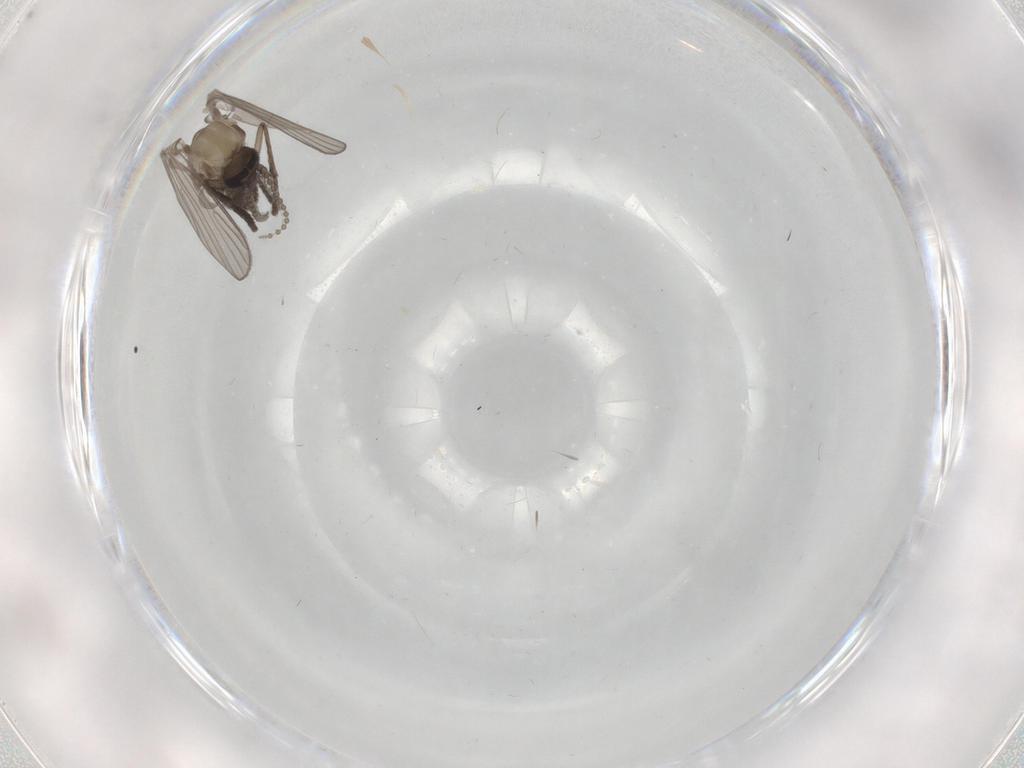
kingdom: Animalia
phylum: Arthropoda
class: Insecta
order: Diptera
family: Psychodidae
